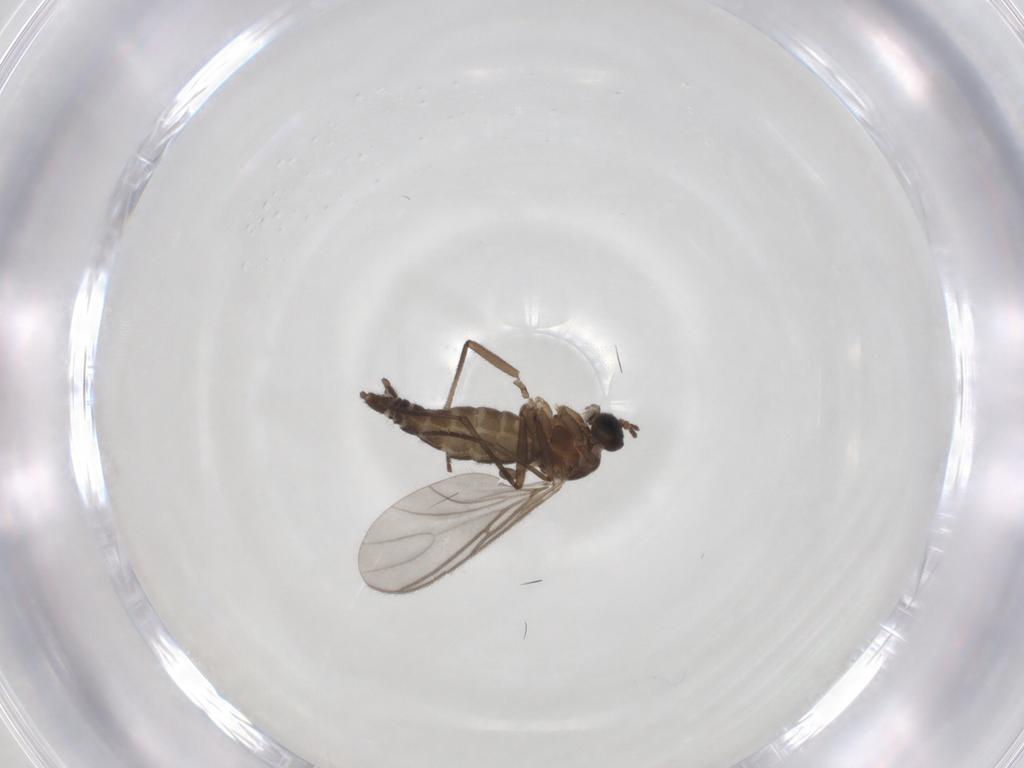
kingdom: Animalia
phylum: Arthropoda
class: Insecta
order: Diptera
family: Sciaridae
